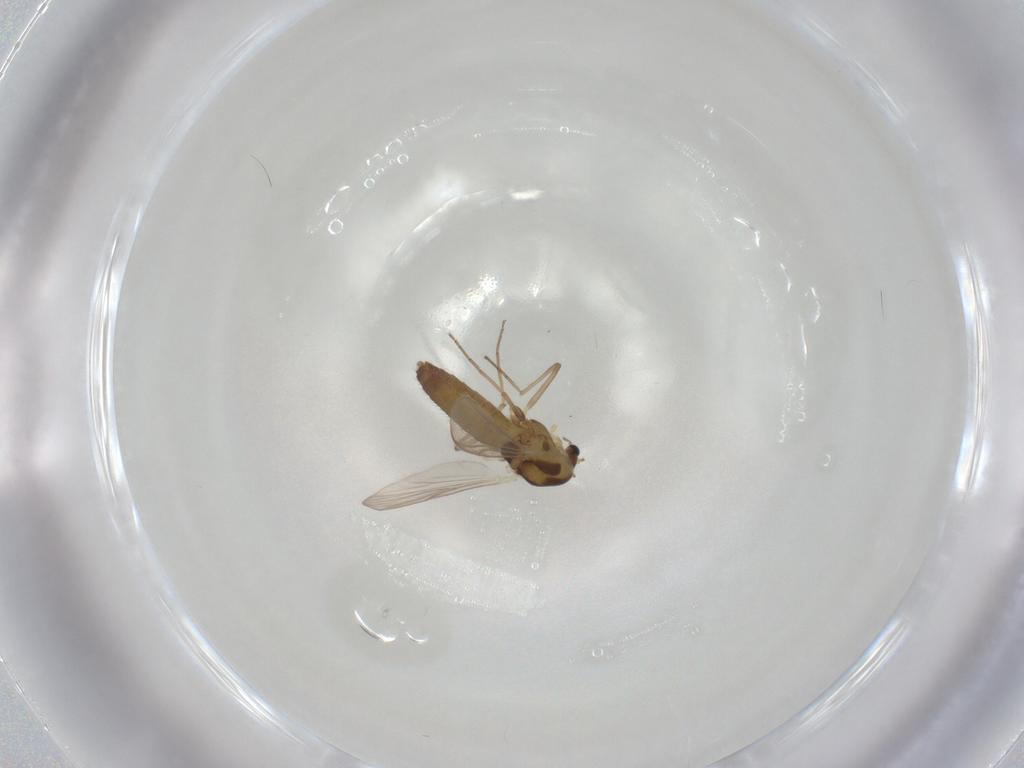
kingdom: Animalia
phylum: Arthropoda
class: Insecta
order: Diptera
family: Chironomidae
